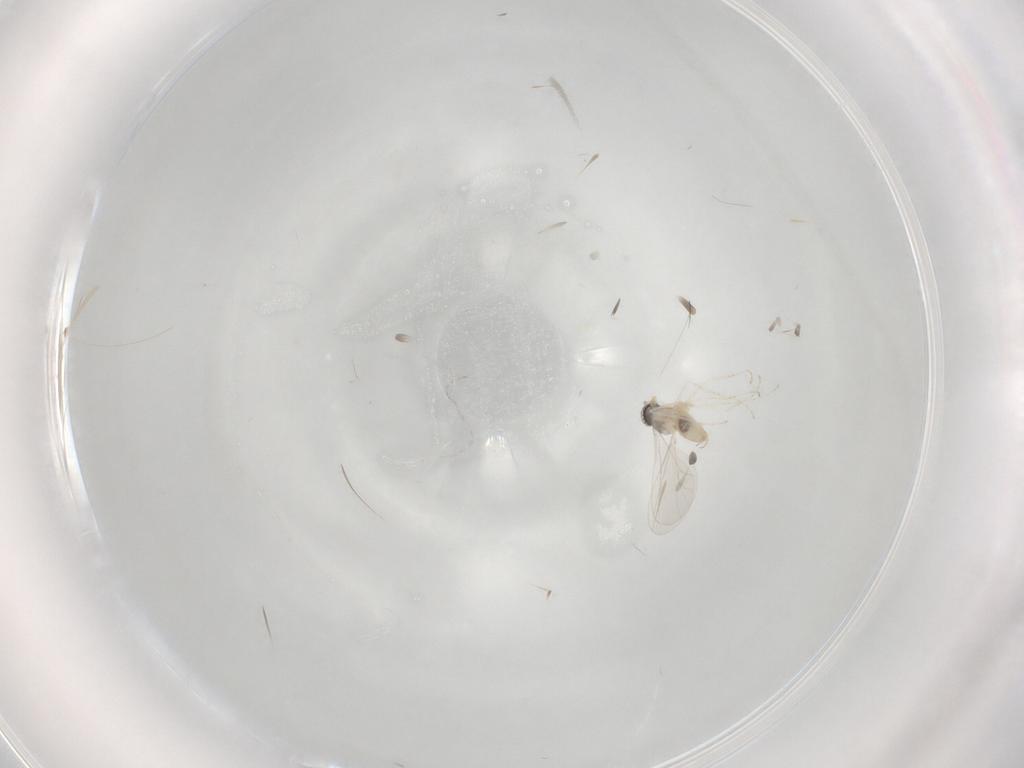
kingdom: Animalia
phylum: Arthropoda
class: Insecta
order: Diptera
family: Cecidomyiidae
